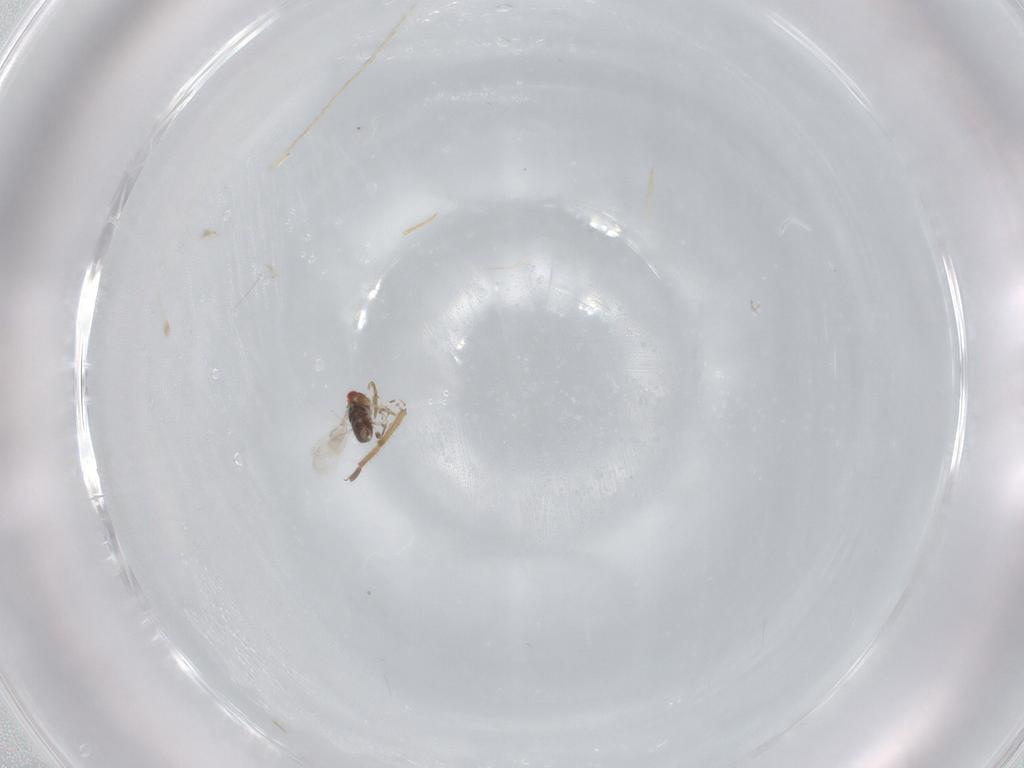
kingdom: Animalia
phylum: Arthropoda
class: Insecta
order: Hymenoptera
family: Azotidae
